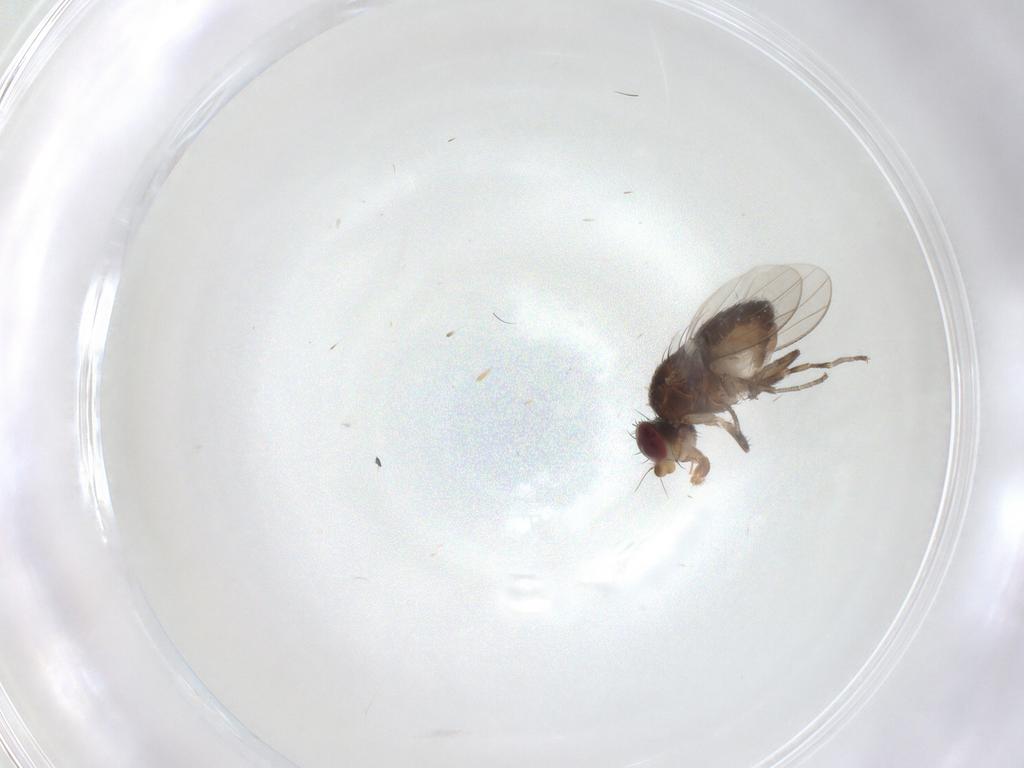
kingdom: Animalia
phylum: Arthropoda
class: Insecta
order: Diptera
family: Heleomyzidae
